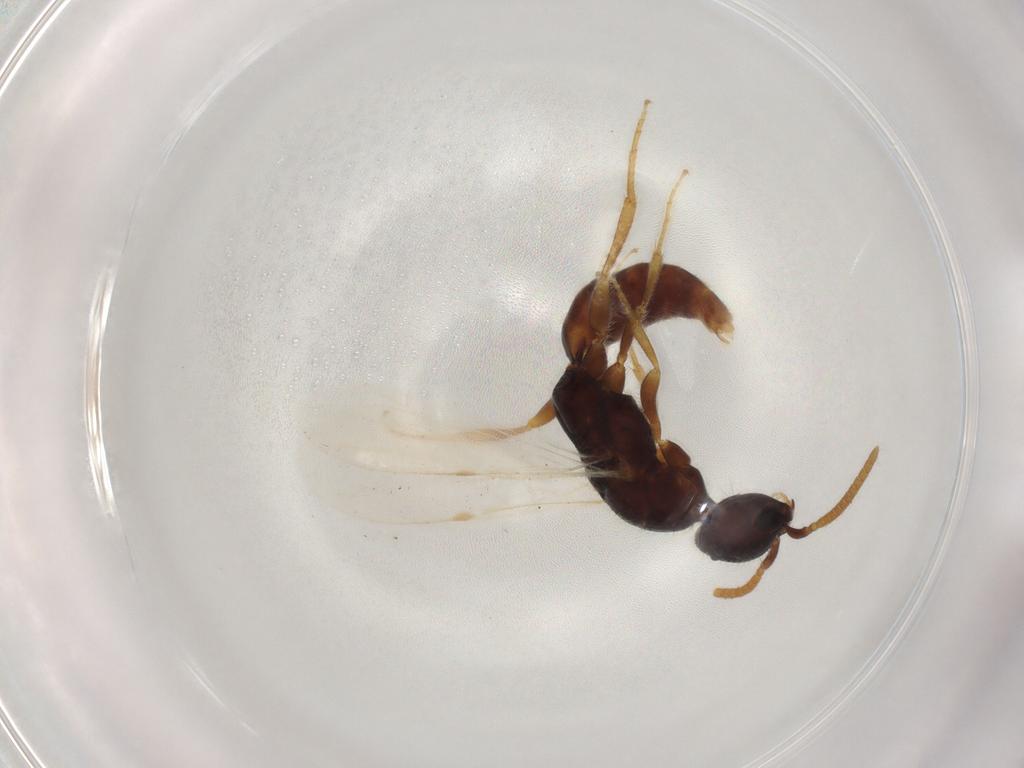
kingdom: Animalia
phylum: Arthropoda
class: Insecta
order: Hymenoptera
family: Bethylidae
